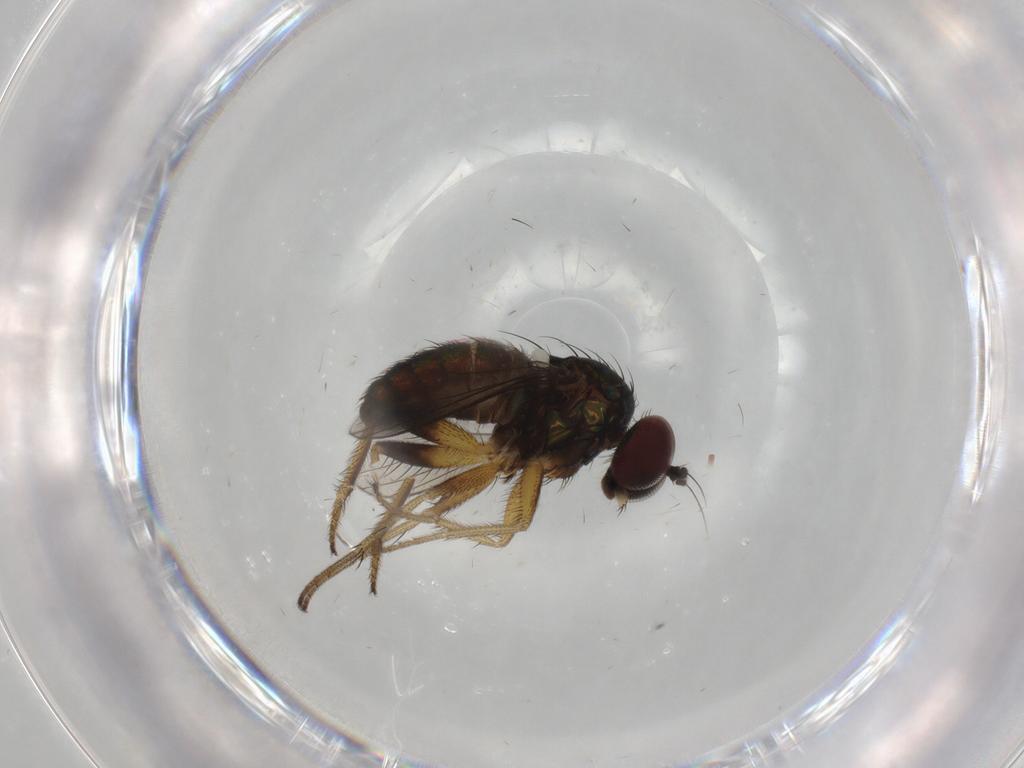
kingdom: Animalia
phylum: Arthropoda
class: Insecta
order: Diptera
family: Dolichopodidae
